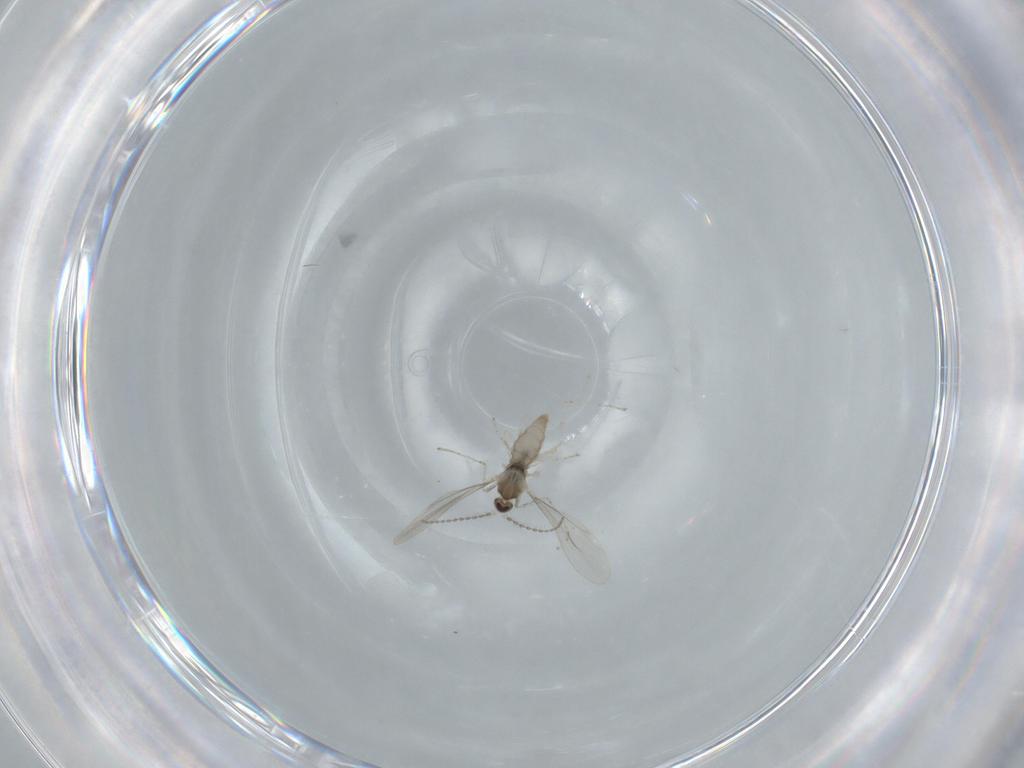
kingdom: Animalia
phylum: Arthropoda
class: Insecta
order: Diptera
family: Cecidomyiidae
